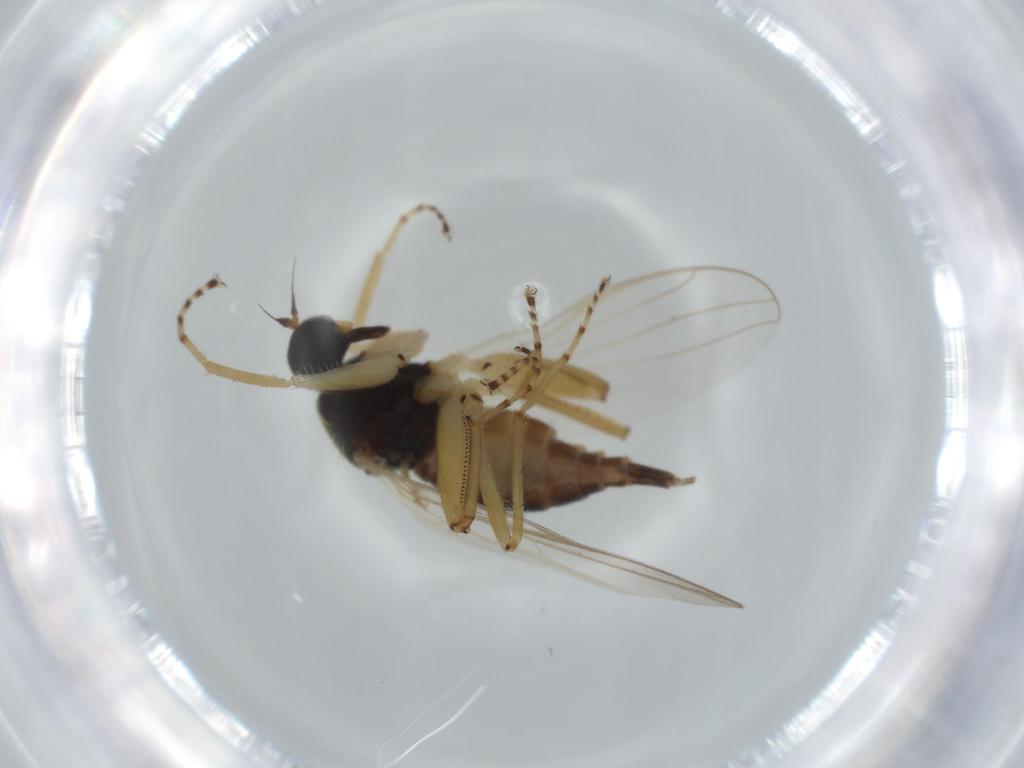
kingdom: Animalia
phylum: Arthropoda
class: Insecta
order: Diptera
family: Hybotidae
